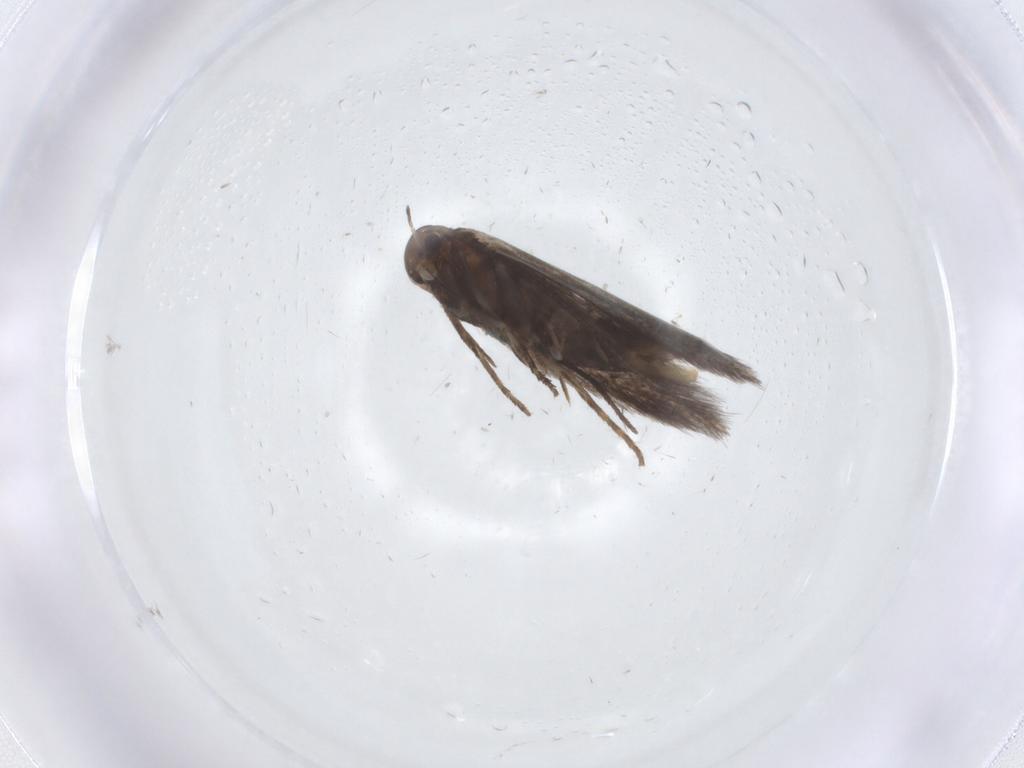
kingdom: Animalia
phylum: Arthropoda
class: Insecta
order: Lepidoptera
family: Elachistidae
